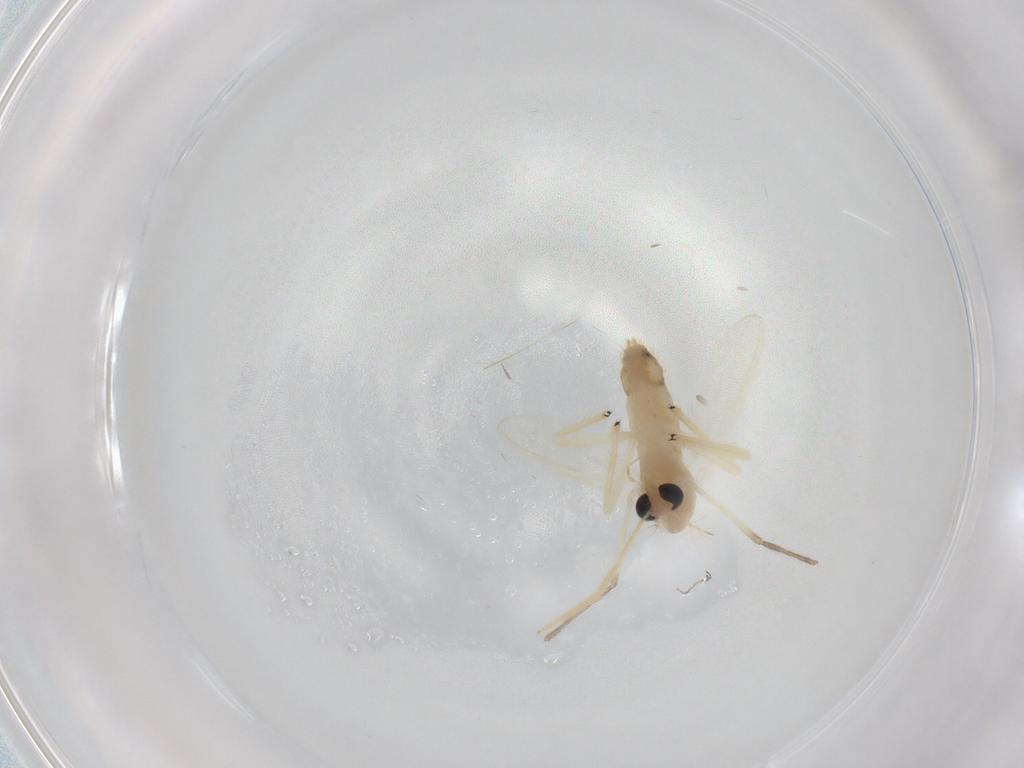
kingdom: Animalia
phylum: Arthropoda
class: Insecta
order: Diptera
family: Chironomidae
